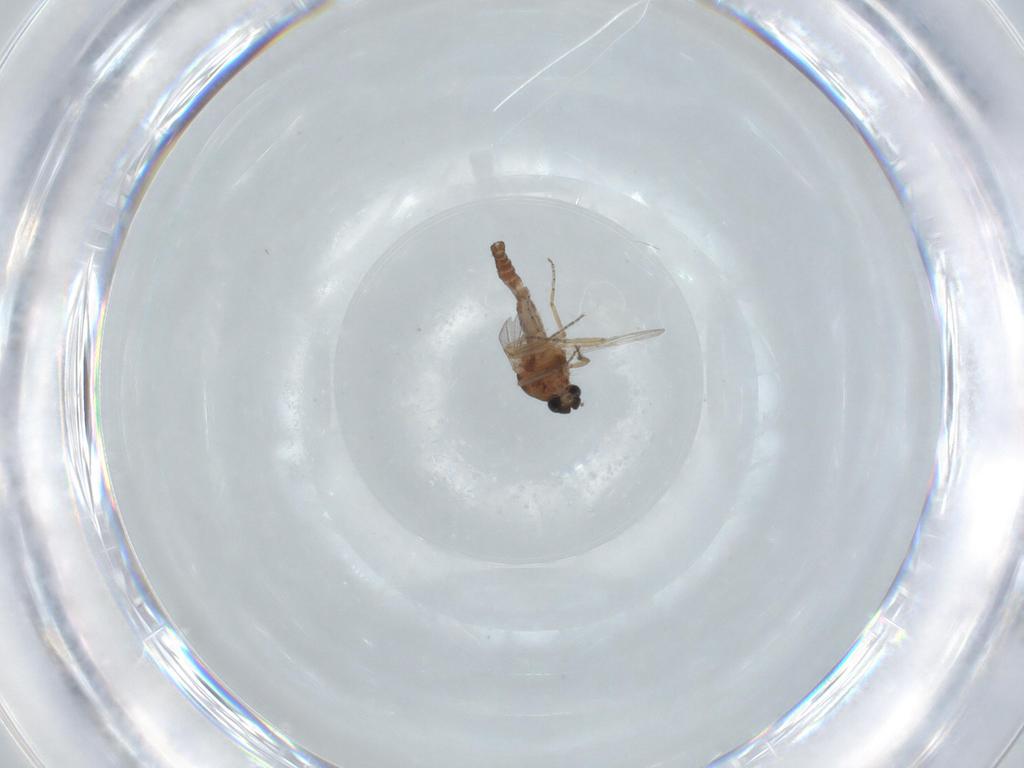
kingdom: Animalia
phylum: Arthropoda
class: Insecta
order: Diptera
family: Ceratopogonidae
